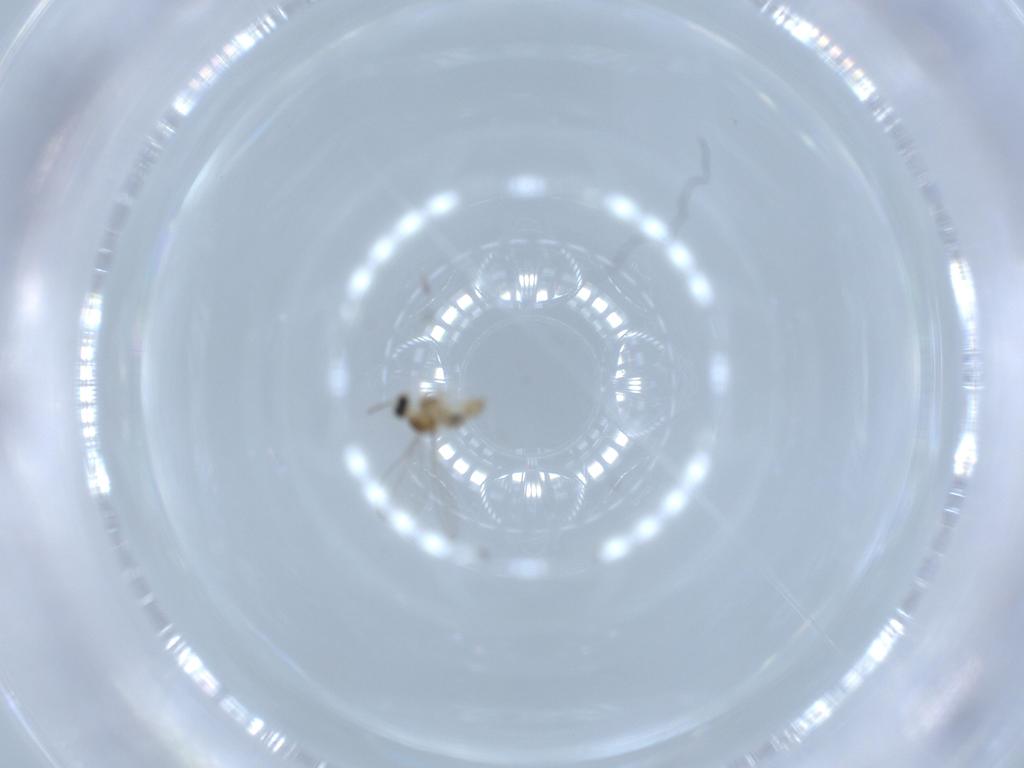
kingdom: Animalia
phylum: Arthropoda
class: Insecta
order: Diptera
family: Cecidomyiidae
